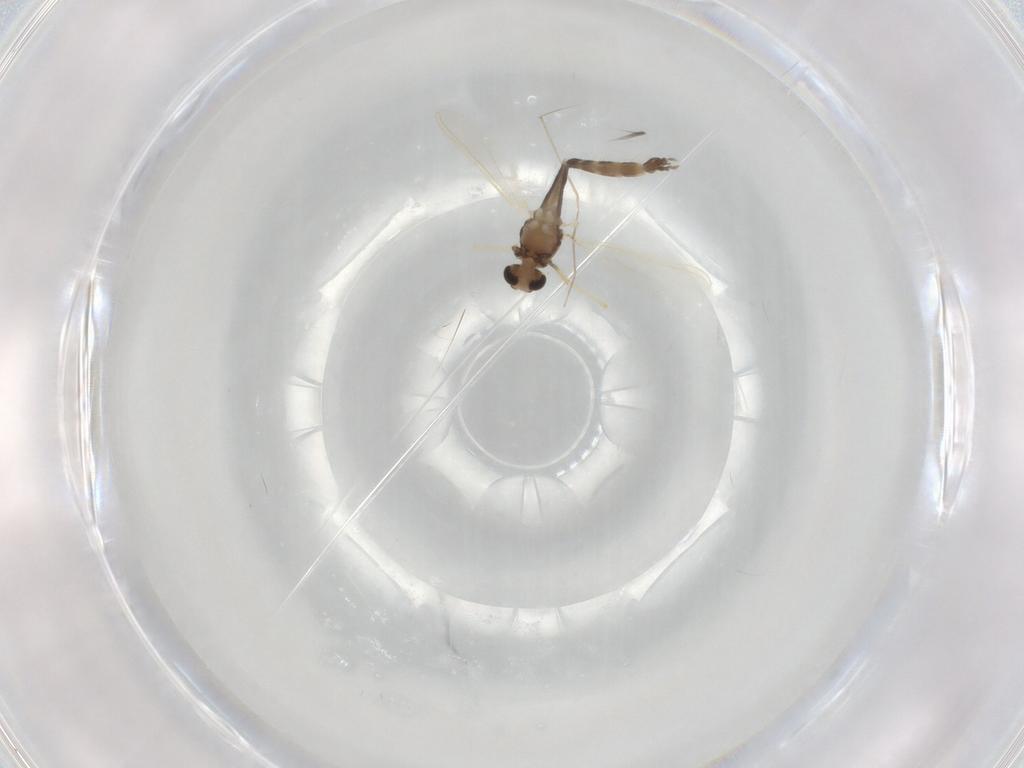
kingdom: Animalia
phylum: Arthropoda
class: Insecta
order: Diptera
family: Chironomidae
